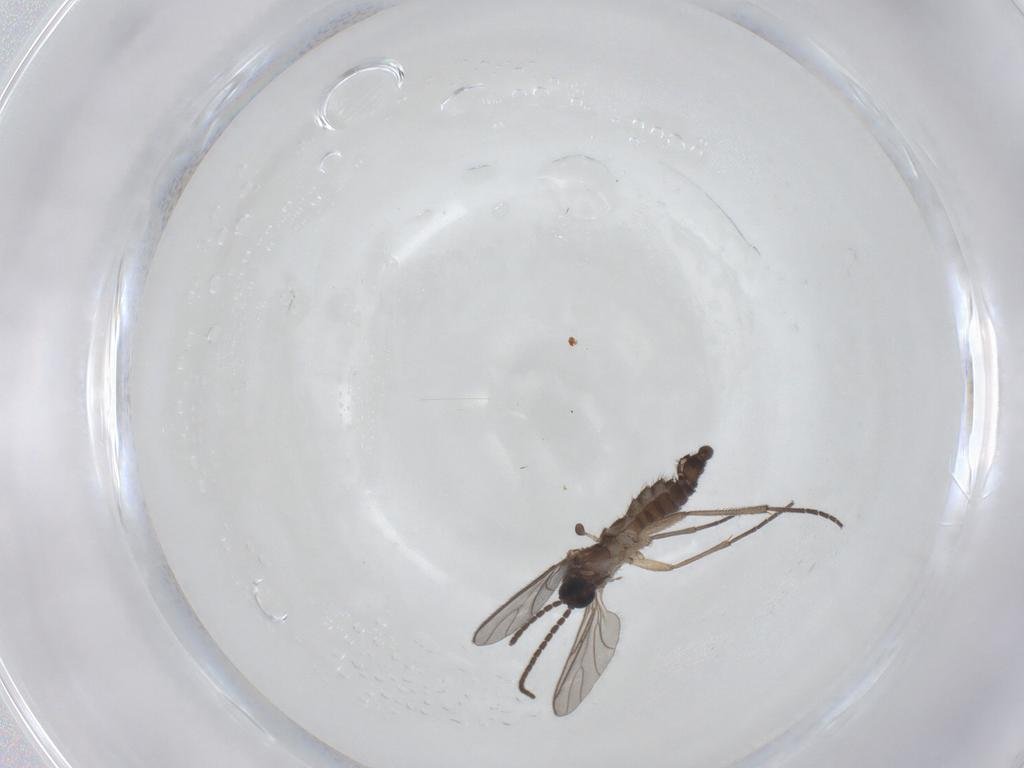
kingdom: Animalia
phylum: Arthropoda
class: Insecta
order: Diptera
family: Sciaridae
